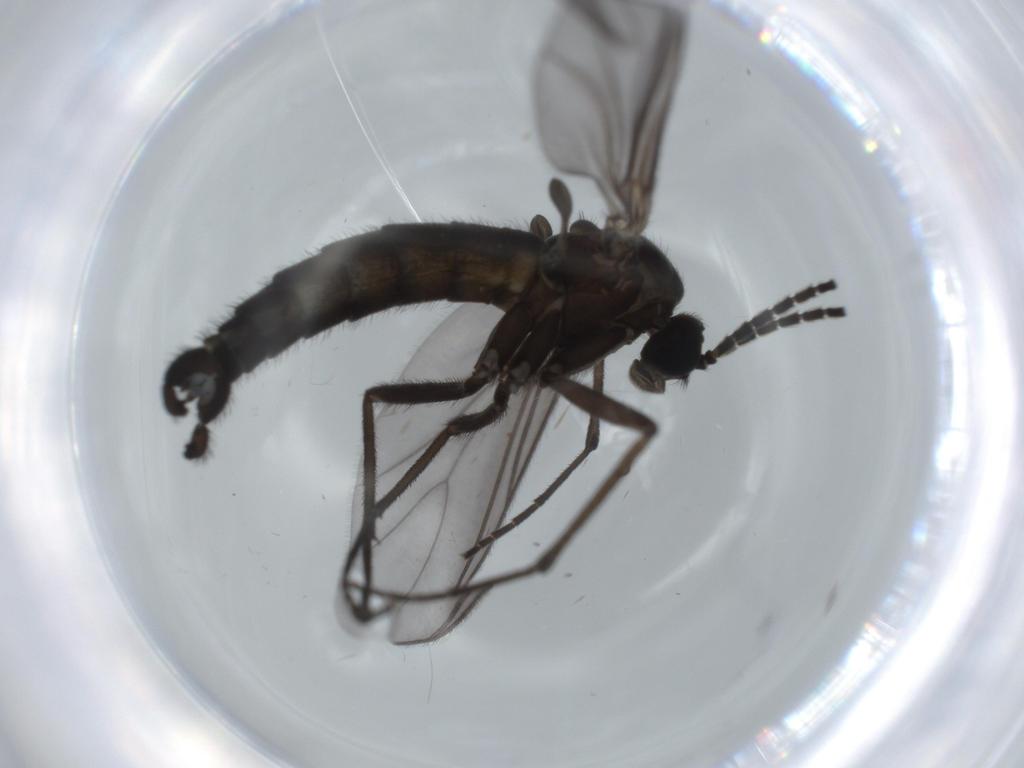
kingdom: Animalia
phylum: Arthropoda
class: Insecta
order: Diptera
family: Sciaridae
